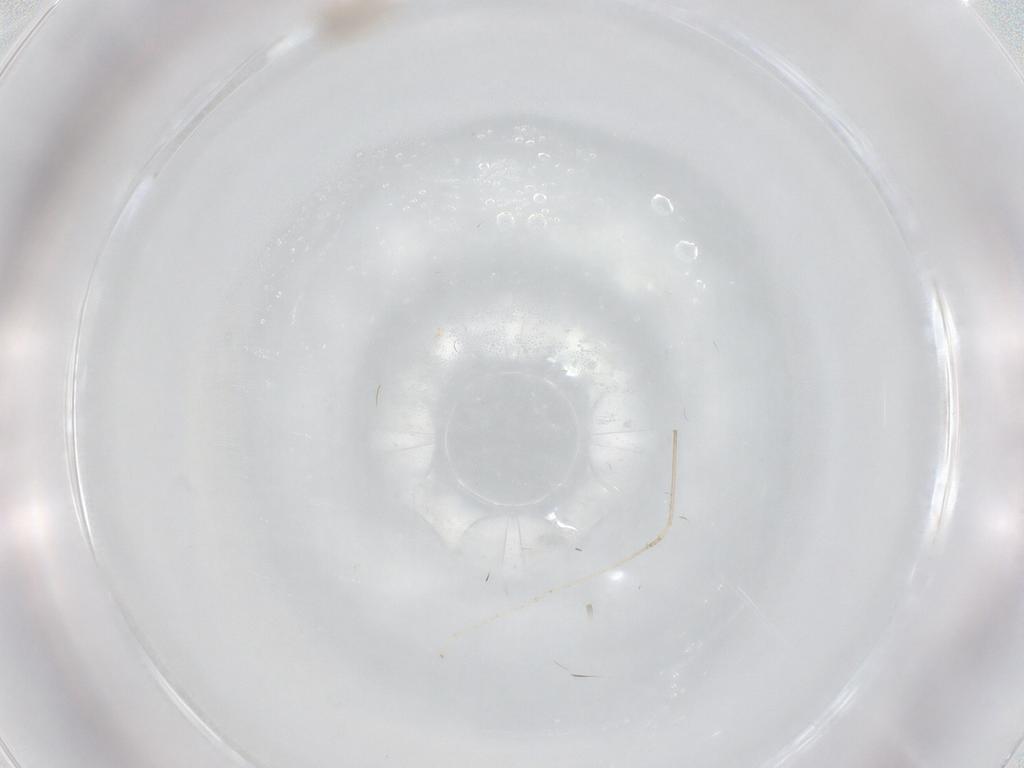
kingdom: Animalia
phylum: Arthropoda
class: Insecta
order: Diptera
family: Cecidomyiidae
